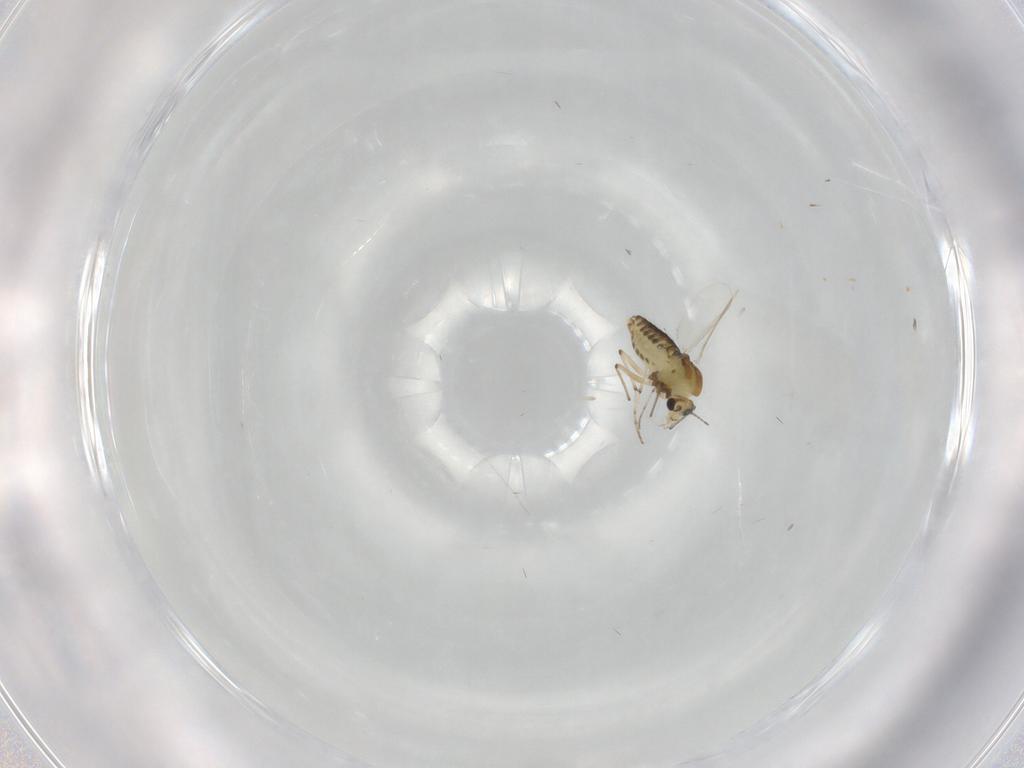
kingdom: Animalia
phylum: Arthropoda
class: Insecta
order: Diptera
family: Chironomidae
